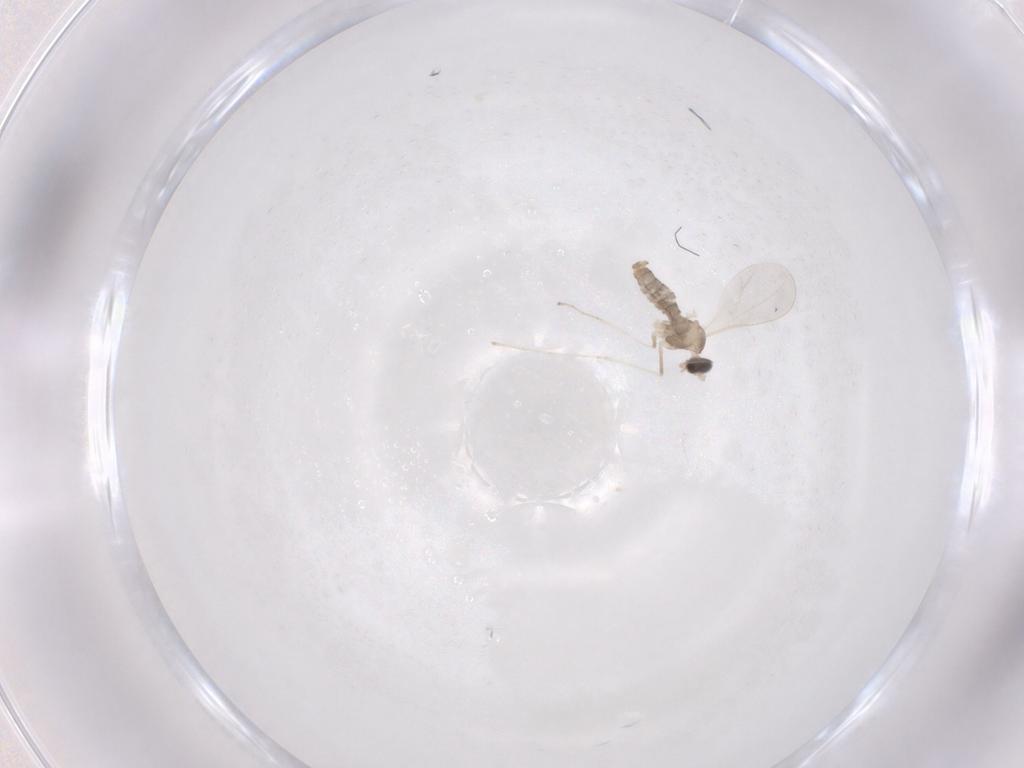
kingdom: Animalia
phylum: Arthropoda
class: Insecta
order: Diptera
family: Cecidomyiidae
